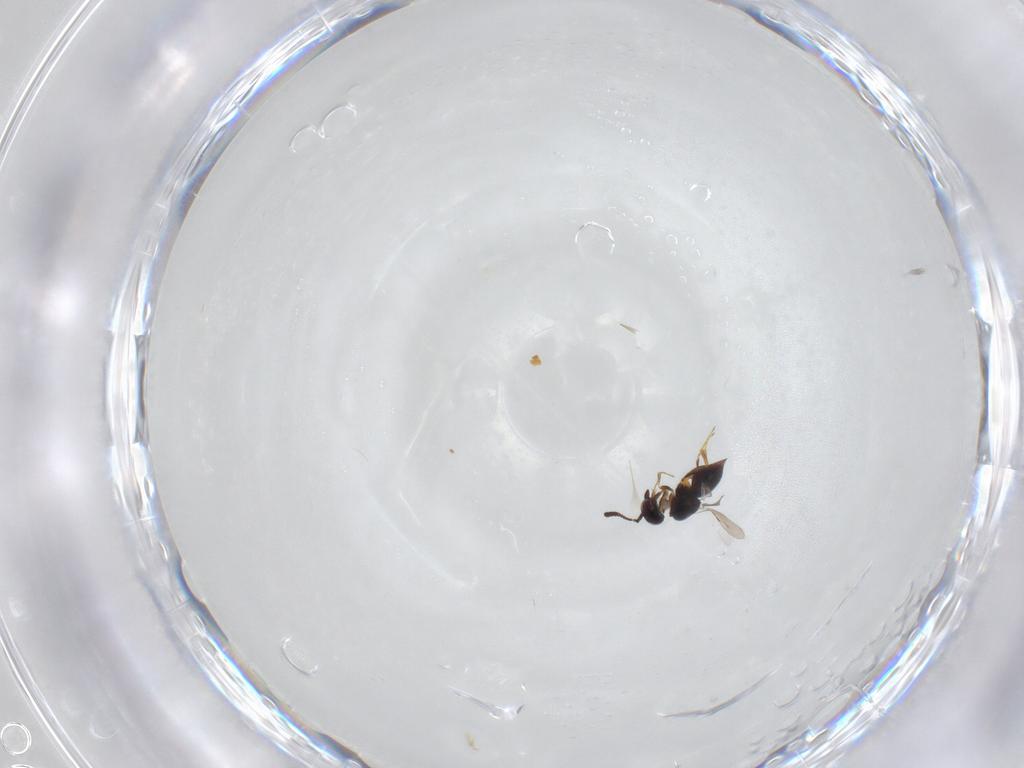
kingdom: Animalia
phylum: Arthropoda
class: Insecta
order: Hymenoptera
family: Ceraphronidae
